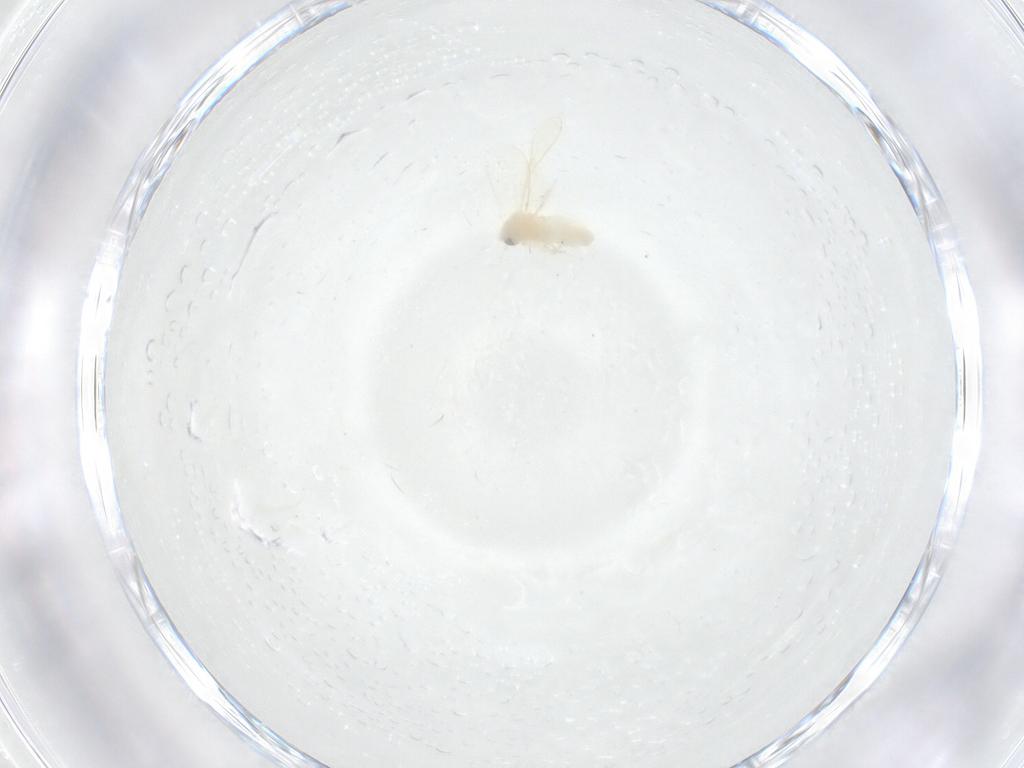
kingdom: Animalia
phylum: Arthropoda
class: Insecta
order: Hemiptera
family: Aleyrodidae
